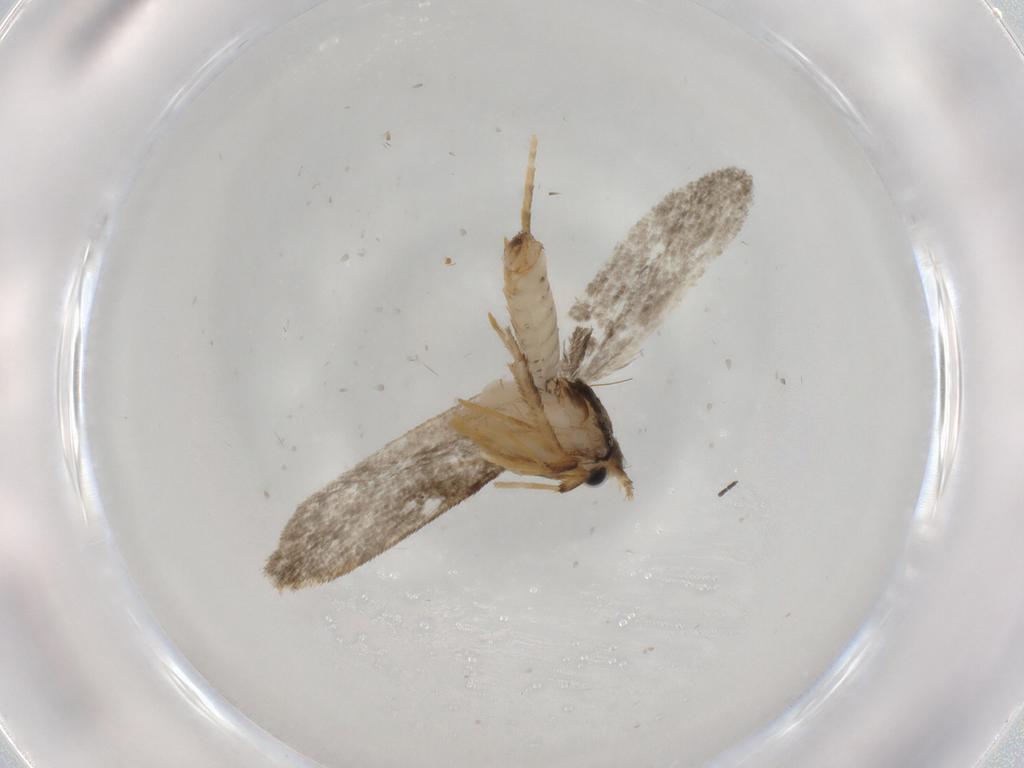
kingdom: Animalia
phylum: Arthropoda
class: Insecta
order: Lepidoptera
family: Psychidae
